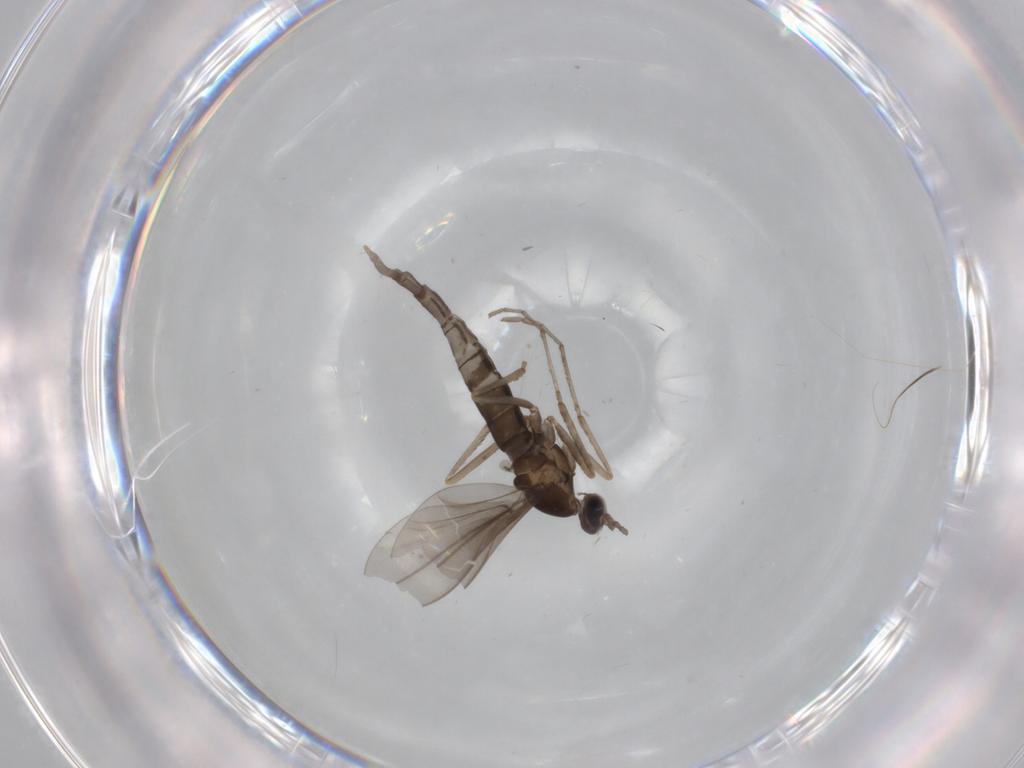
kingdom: Animalia
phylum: Arthropoda
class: Insecta
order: Diptera
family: Cecidomyiidae
